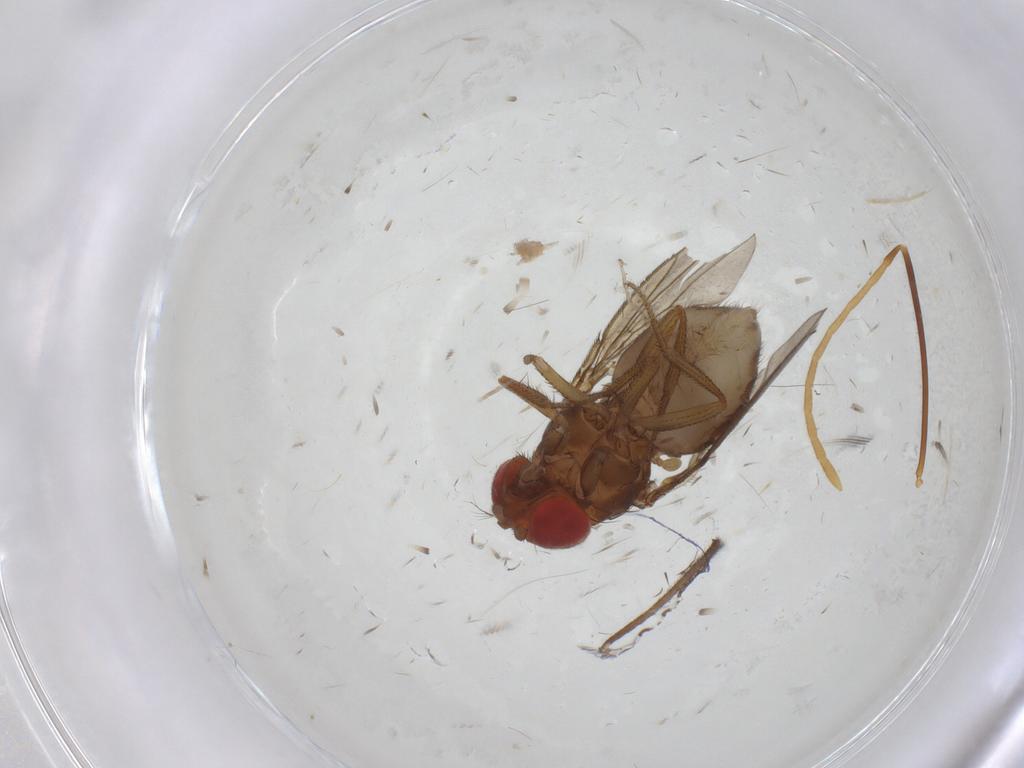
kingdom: Animalia
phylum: Arthropoda
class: Insecta
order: Diptera
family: Drosophilidae
